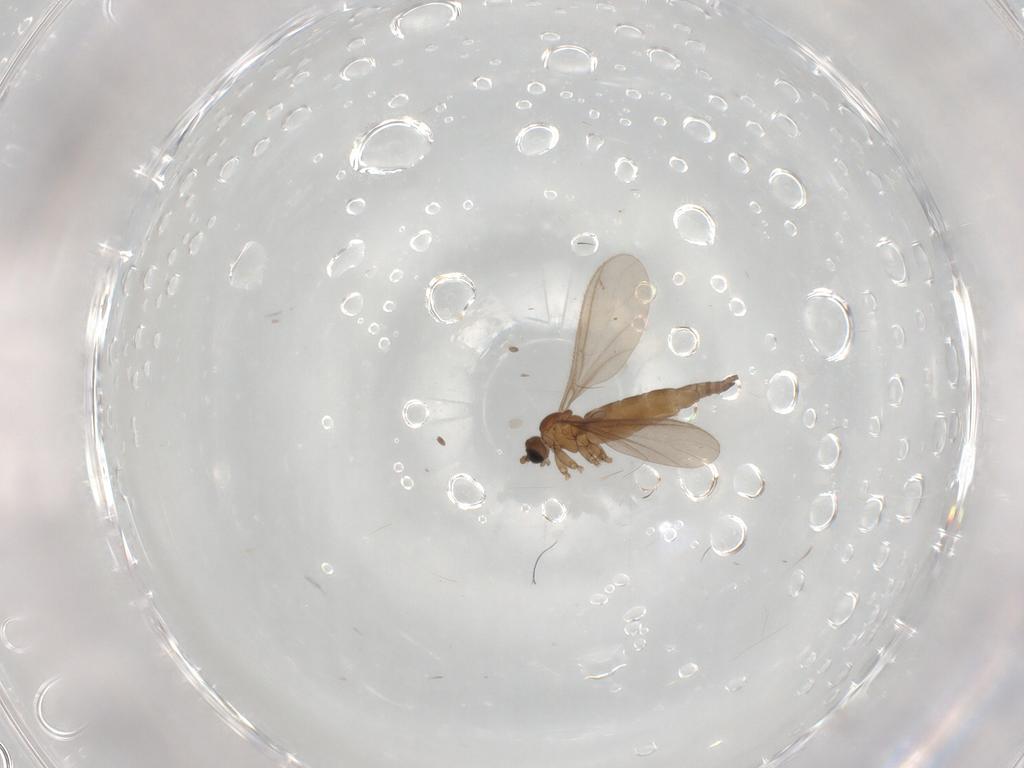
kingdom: Animalia
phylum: Arthropoda
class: Insecta
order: Diptera
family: Sciaridae
